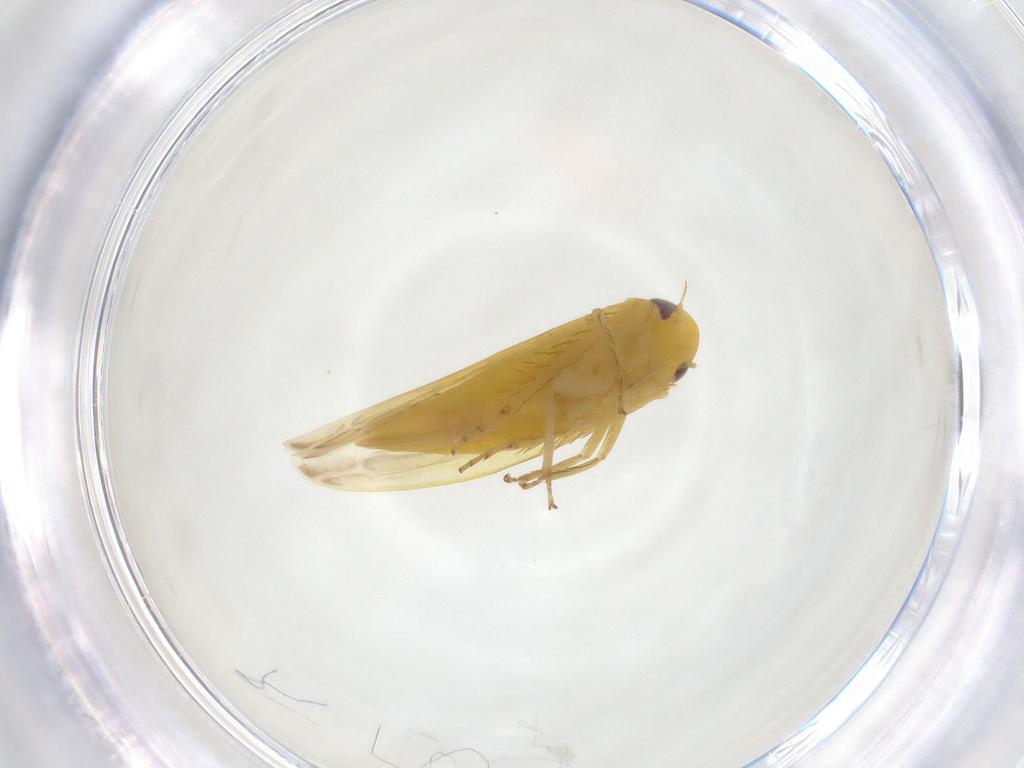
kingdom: Animalia
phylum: Arthropoda
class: Insecta
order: Hemiptera
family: Cicadellidae
